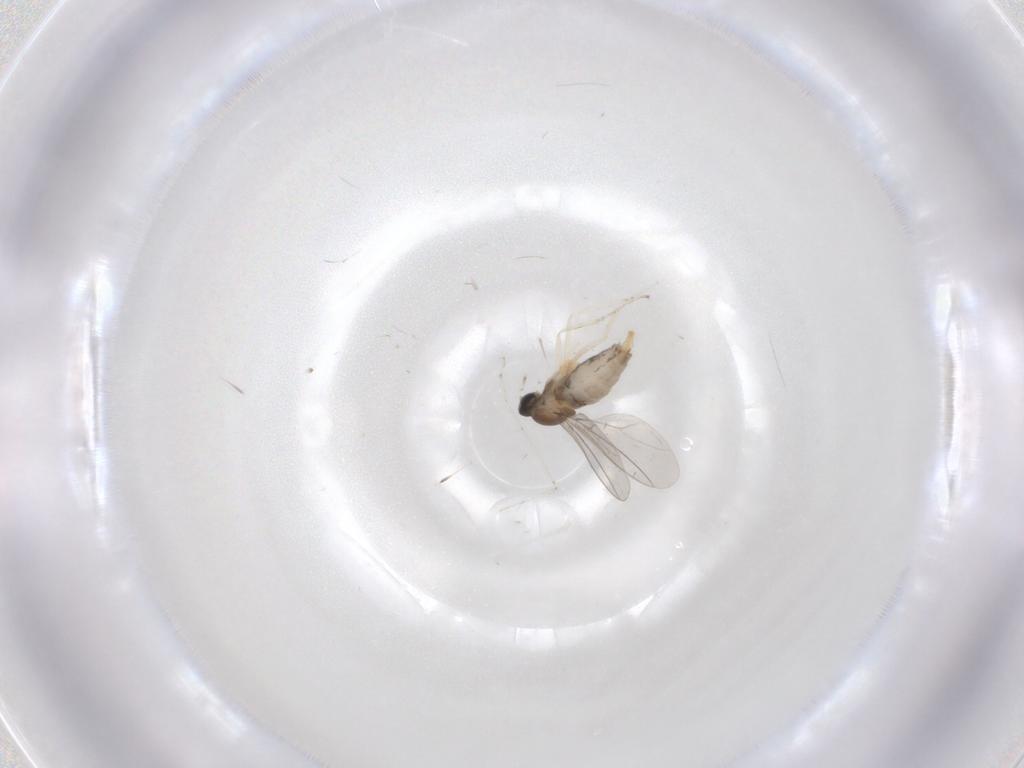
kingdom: Animalia
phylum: Arthropoda
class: Insecta
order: Diptera
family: Cecidomyiidae
